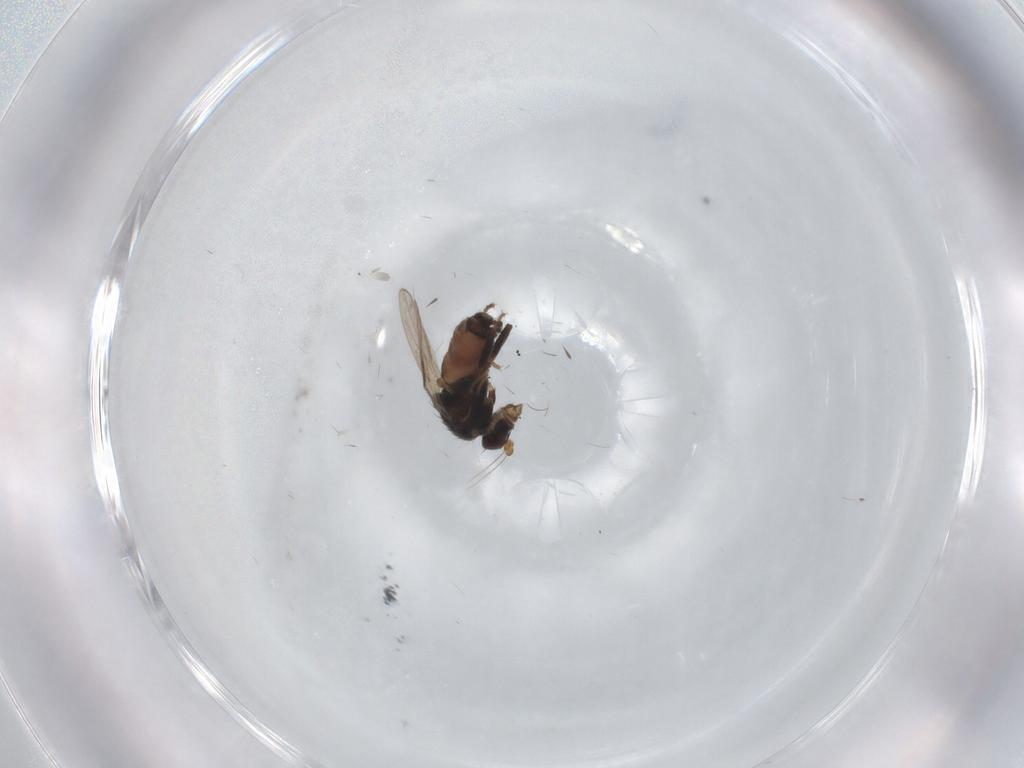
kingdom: Animalia
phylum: Arthropoda
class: Insecta
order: Diptera
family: Sphaeroceridae
